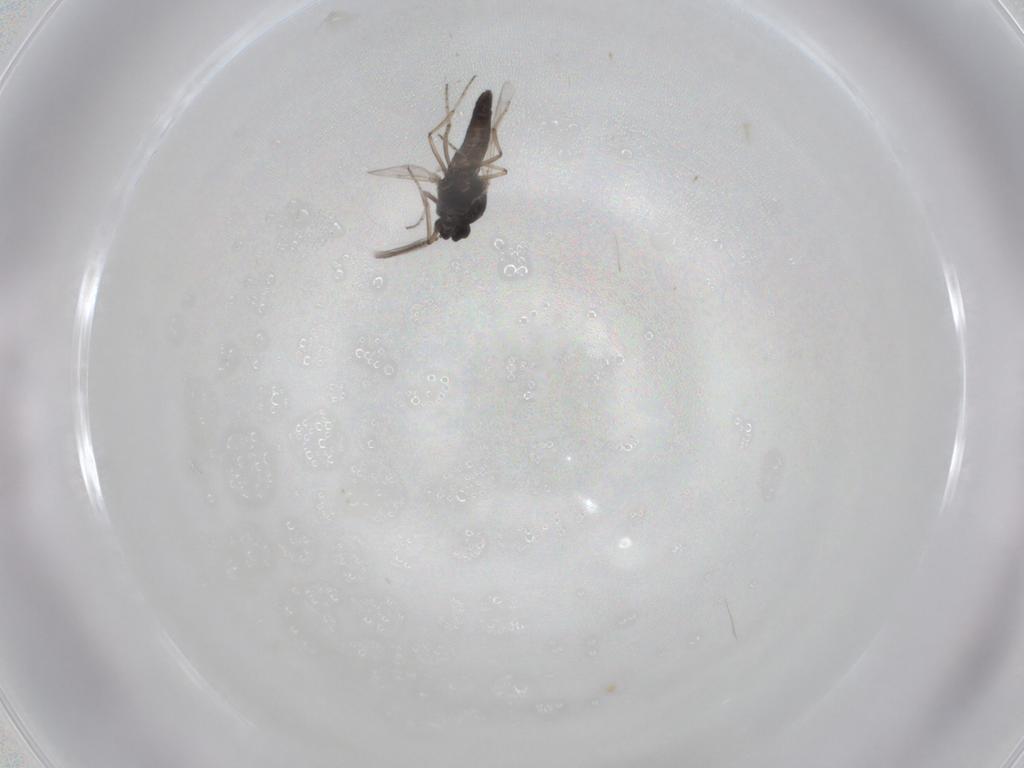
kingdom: Animalia
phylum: Arthropoda
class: Insecta
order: Diptera
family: Ceratopogonidae
